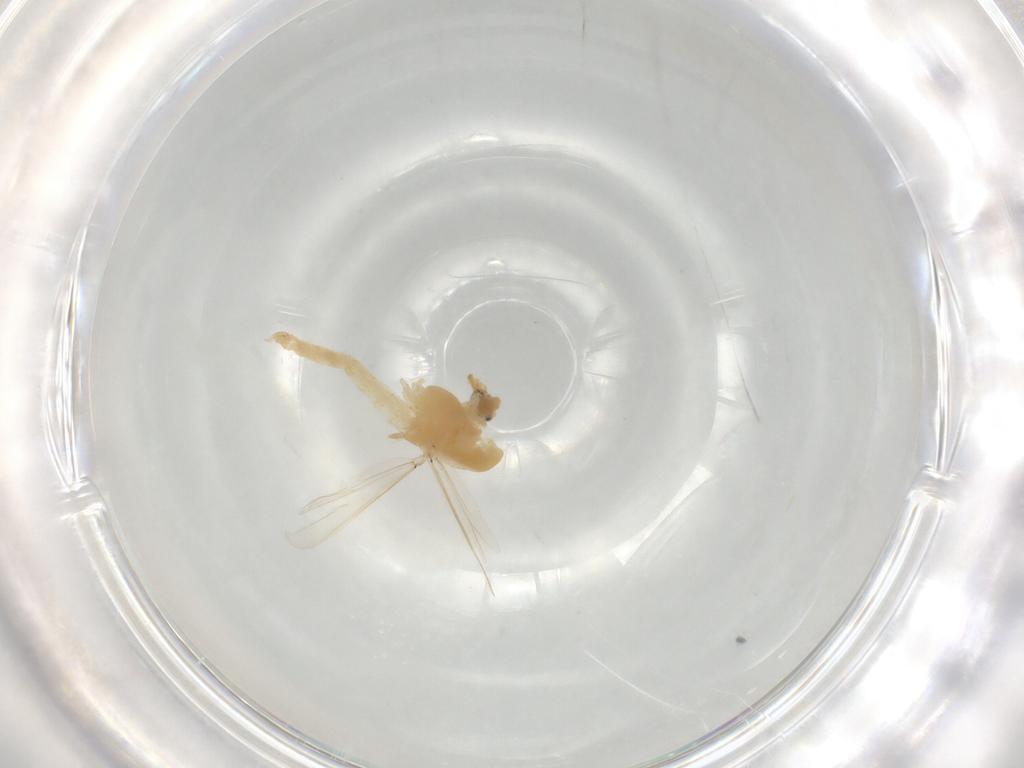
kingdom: Animalia
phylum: Arthropoda
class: Insecta
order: Diptera
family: Chironomidae
